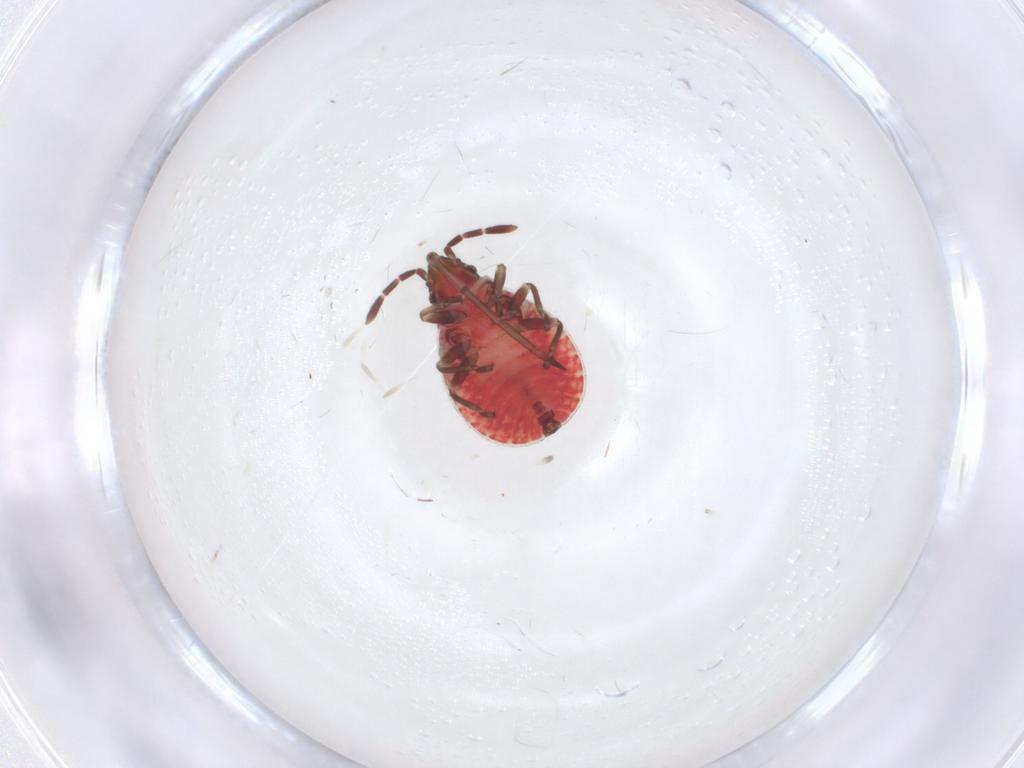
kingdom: Animalia
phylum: Arthropoda
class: Insecta
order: Hemiptera
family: Rhyparochromidae
